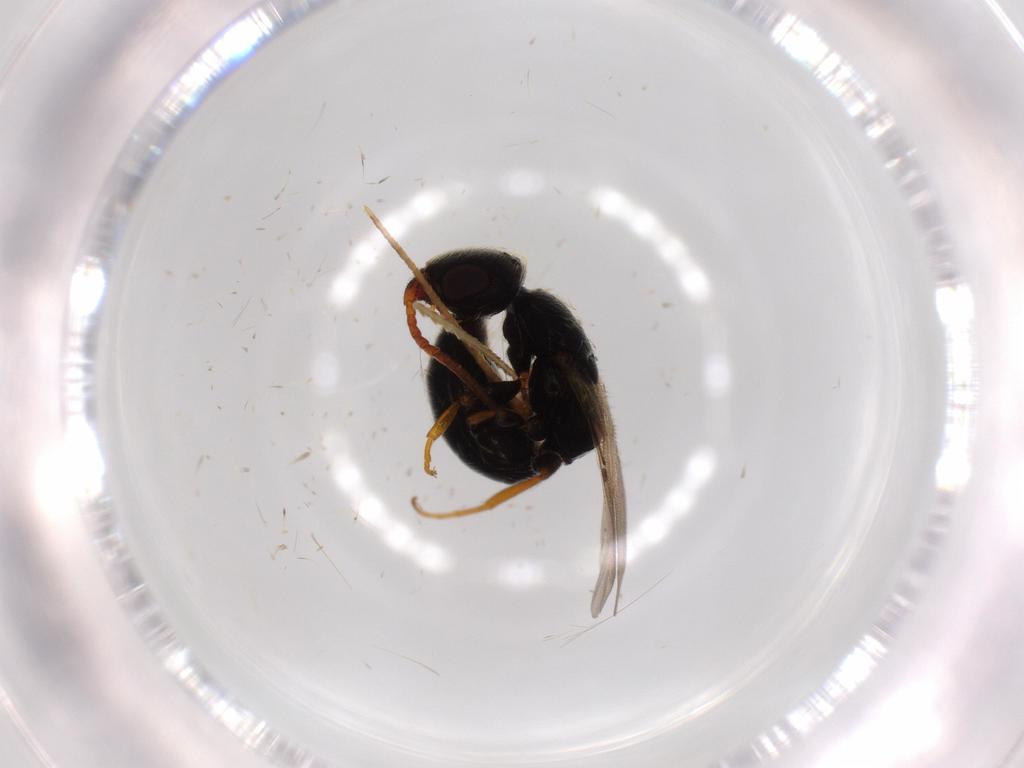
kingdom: Animalia
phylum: Arthropoda
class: Insecta
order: Hymenoptera
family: Bethylidae
